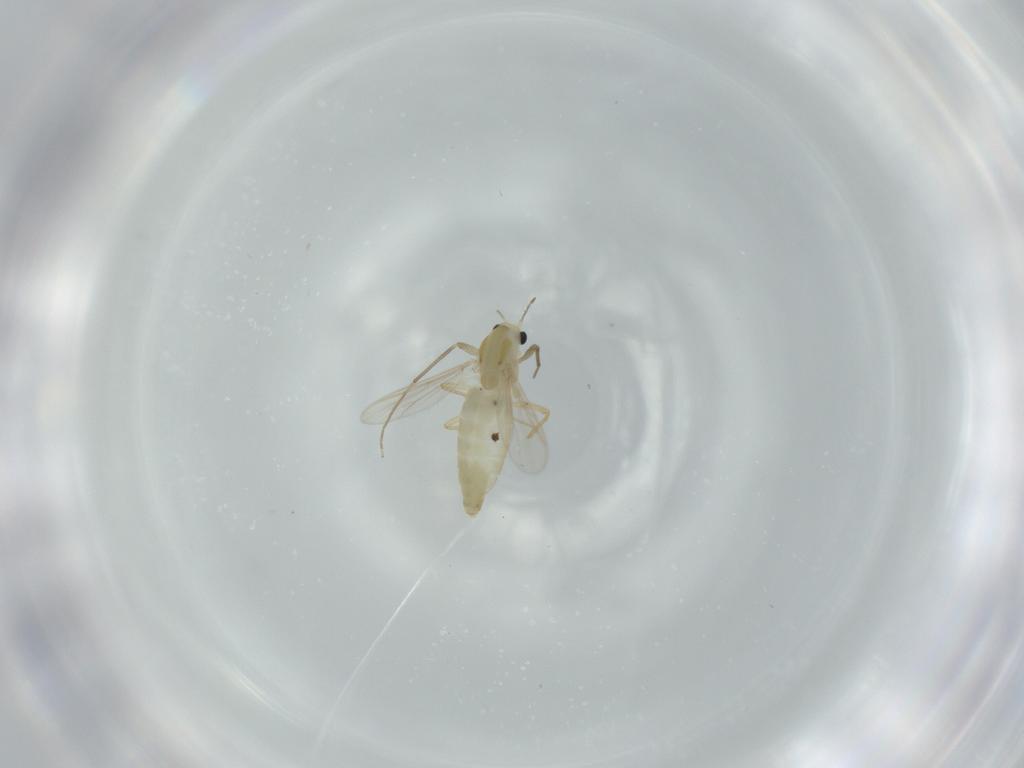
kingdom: Animalia
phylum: Arthropoda
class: Insecta
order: Diptera
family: Chironomidae
